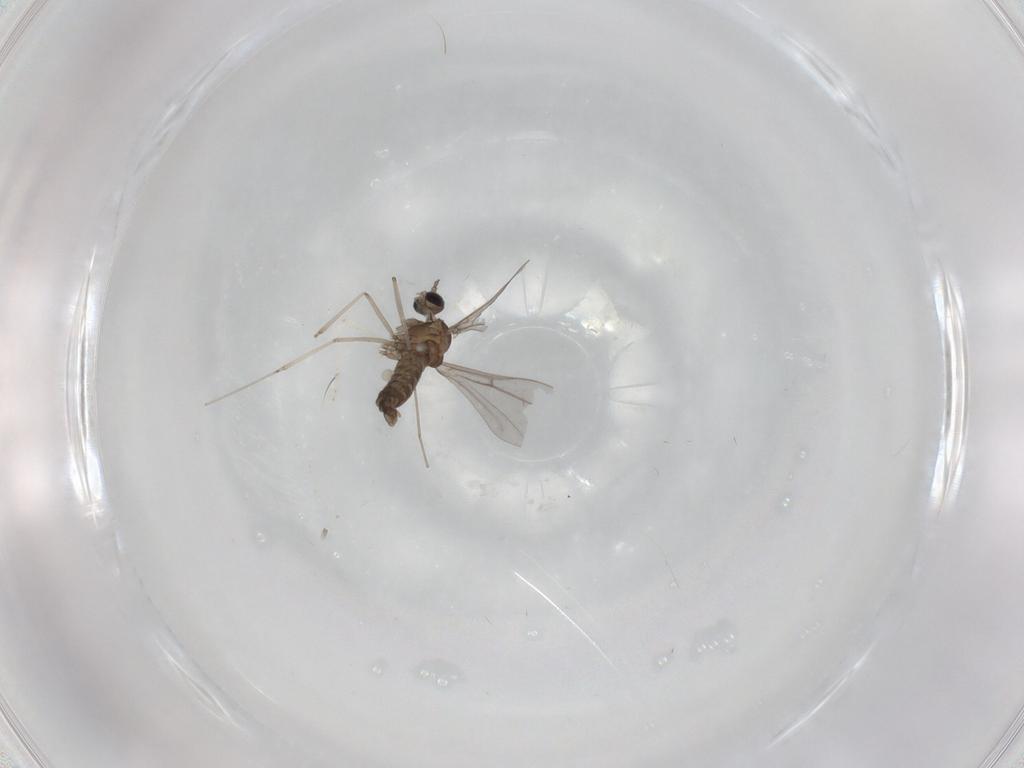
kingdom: Animalia
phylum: Arthropoda
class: Insecta
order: Diptera
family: Cecidomyiidae
